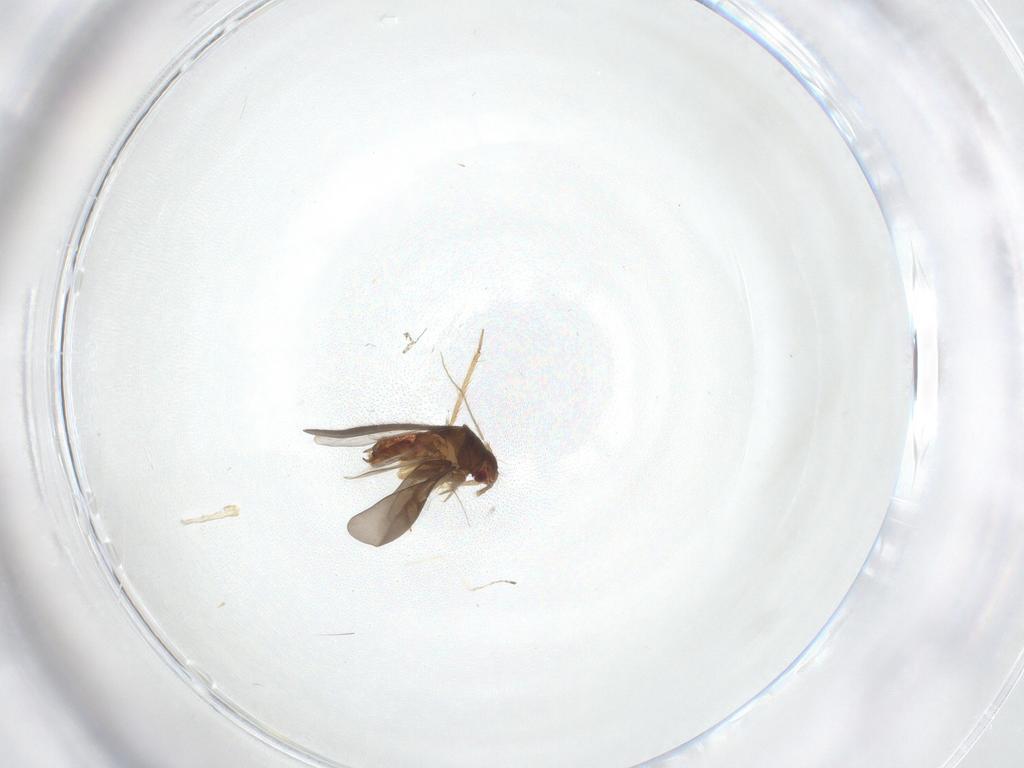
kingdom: Animalia
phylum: Arthropoda
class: Insecta
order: Hemiptera
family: Ceratocombidae
